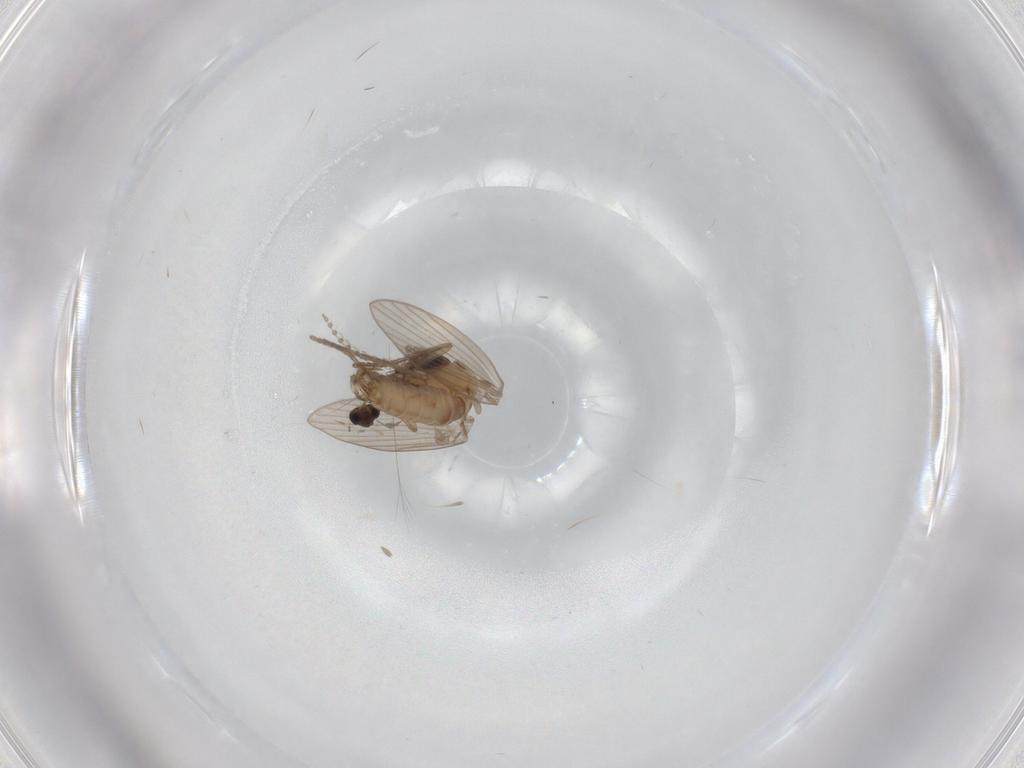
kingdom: Animalia
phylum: Arthropoda
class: Insecta
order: Diptera
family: Psychodidae
